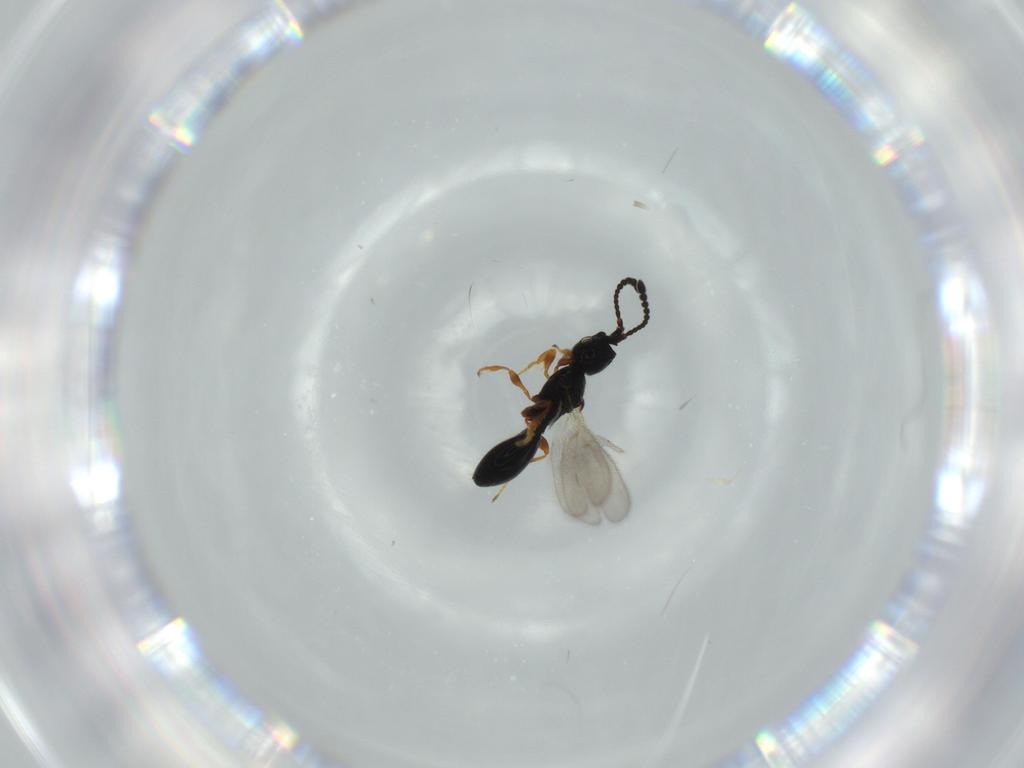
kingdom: Animalia
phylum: Arthropoda
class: Insecta
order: Hymenoptera
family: Diapriidae
